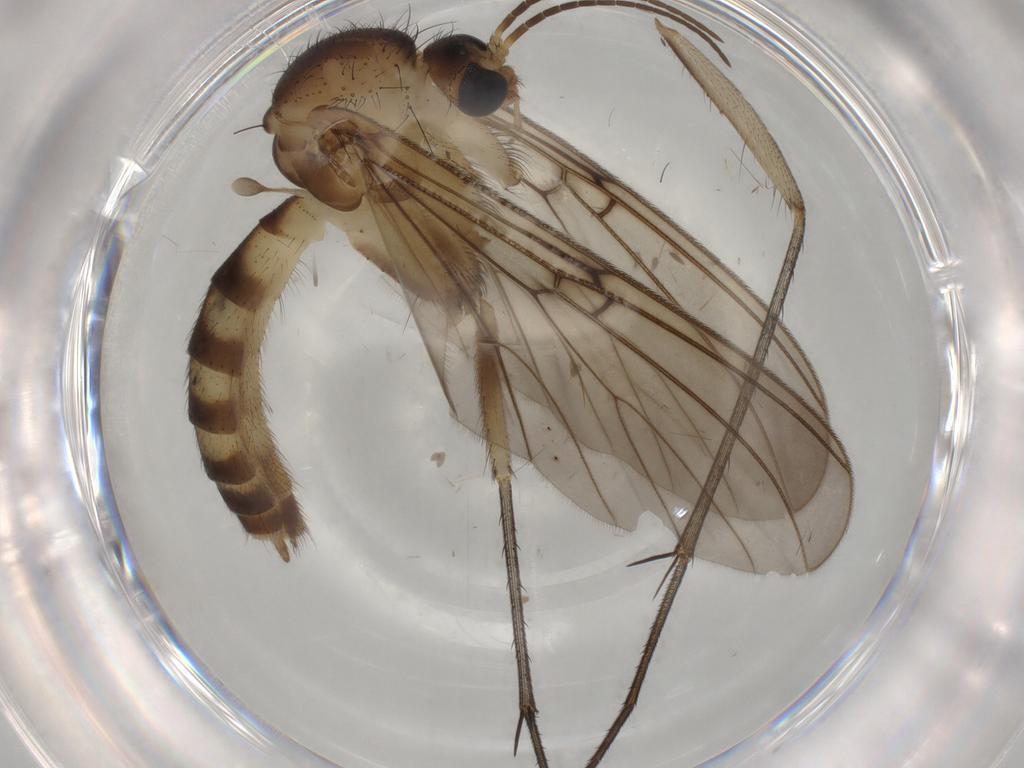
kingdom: Animalia
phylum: Arthropoda
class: Insecta
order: Diptera
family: Mycetophilidae
